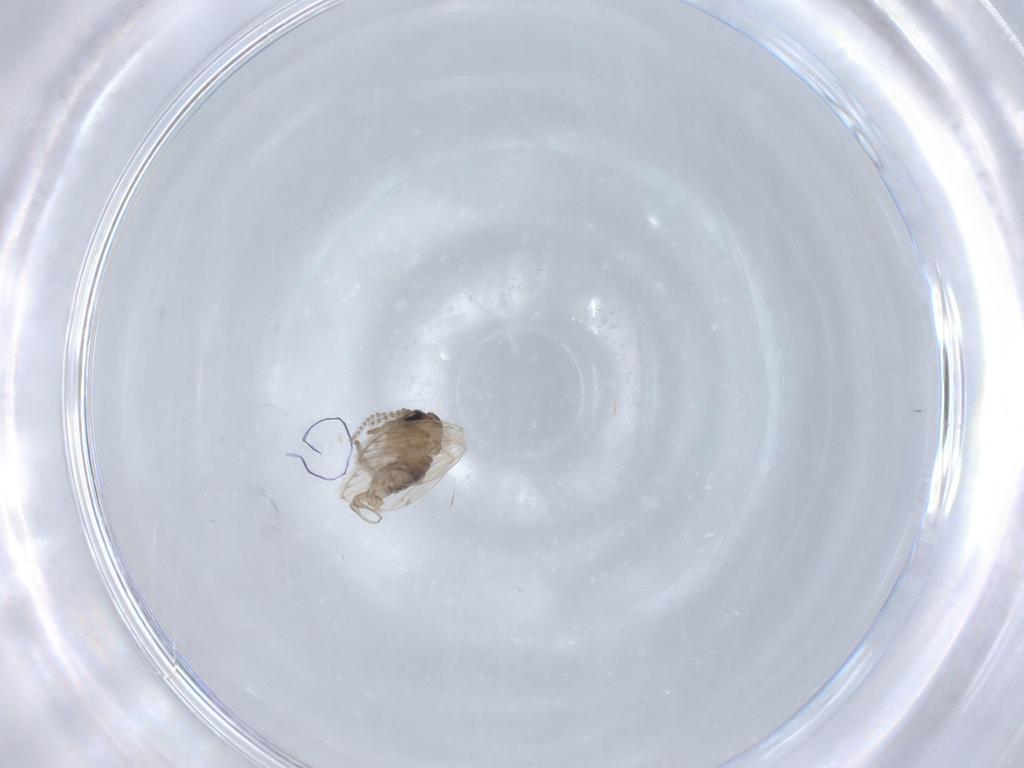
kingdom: Animalia
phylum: Arthropoda
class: Insecta
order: Diptera
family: Psychodidae
